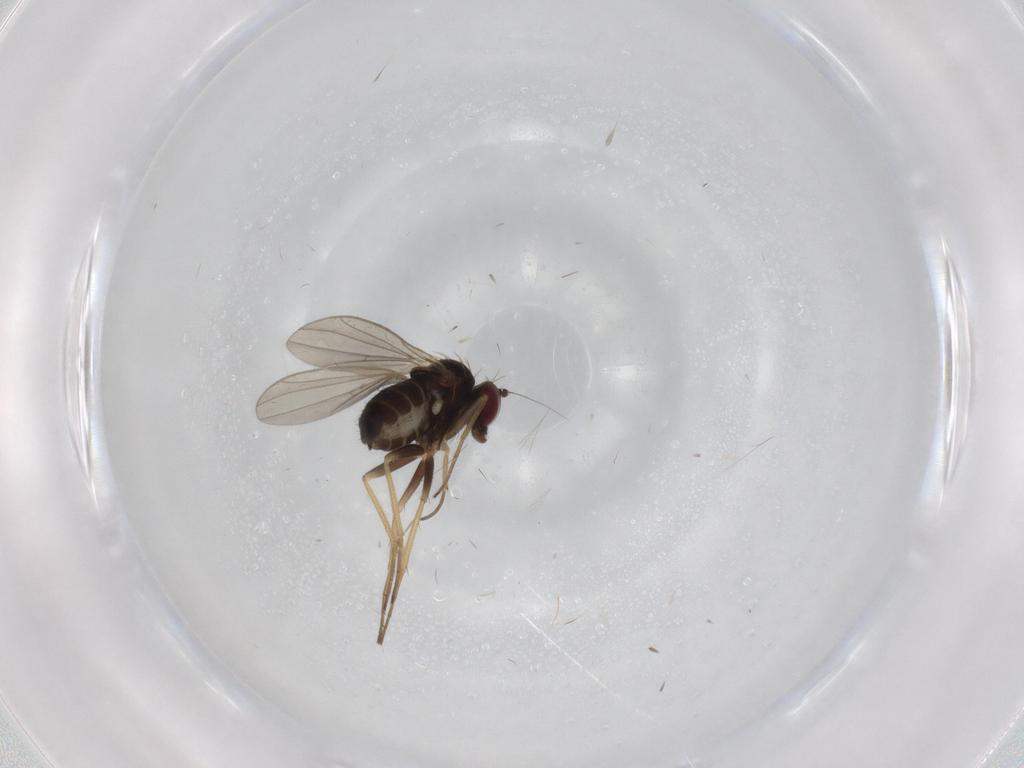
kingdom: Animalia
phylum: Arthropoda
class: Insecta
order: Diptera
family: Dolichopodidae
